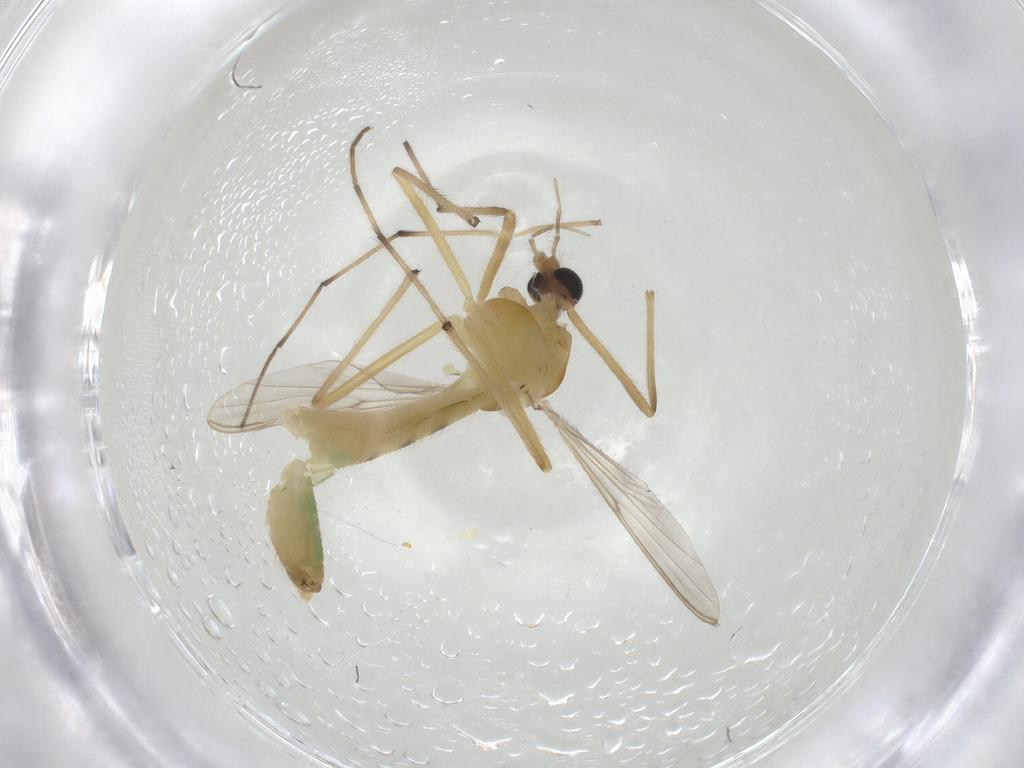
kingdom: Animalia
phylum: Arthropoda
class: Insecta
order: Diptera
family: Chironomidae
